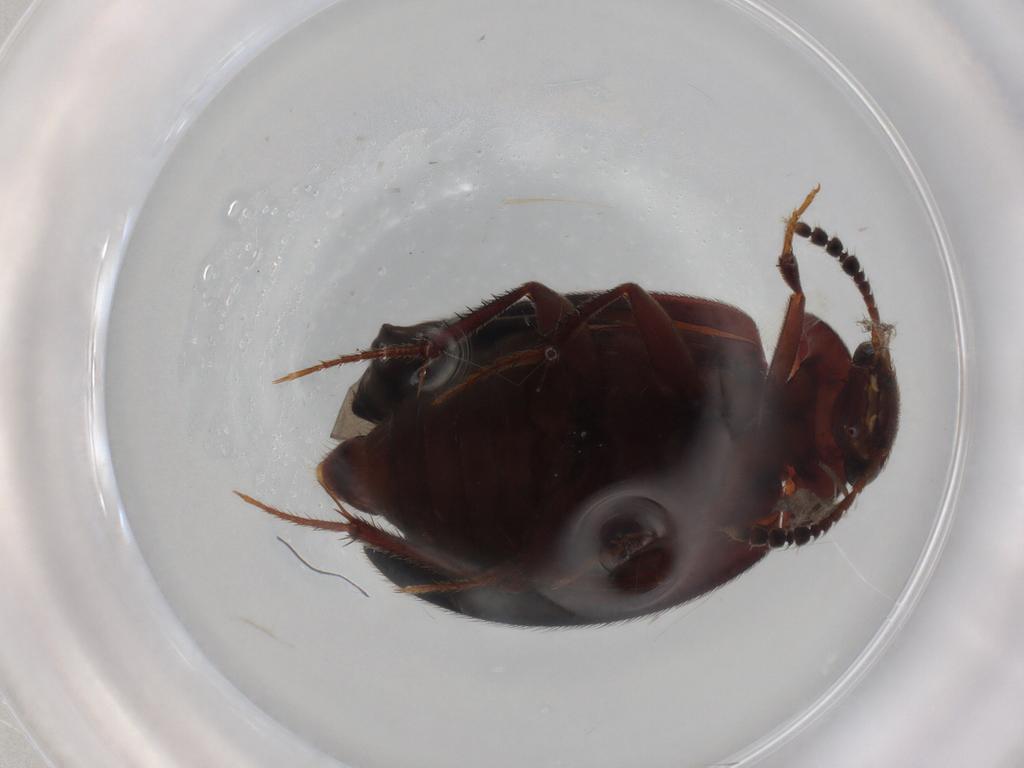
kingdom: Animalia
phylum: Arthropoda
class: Insecta
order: Coleoptera
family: Leiodidae
